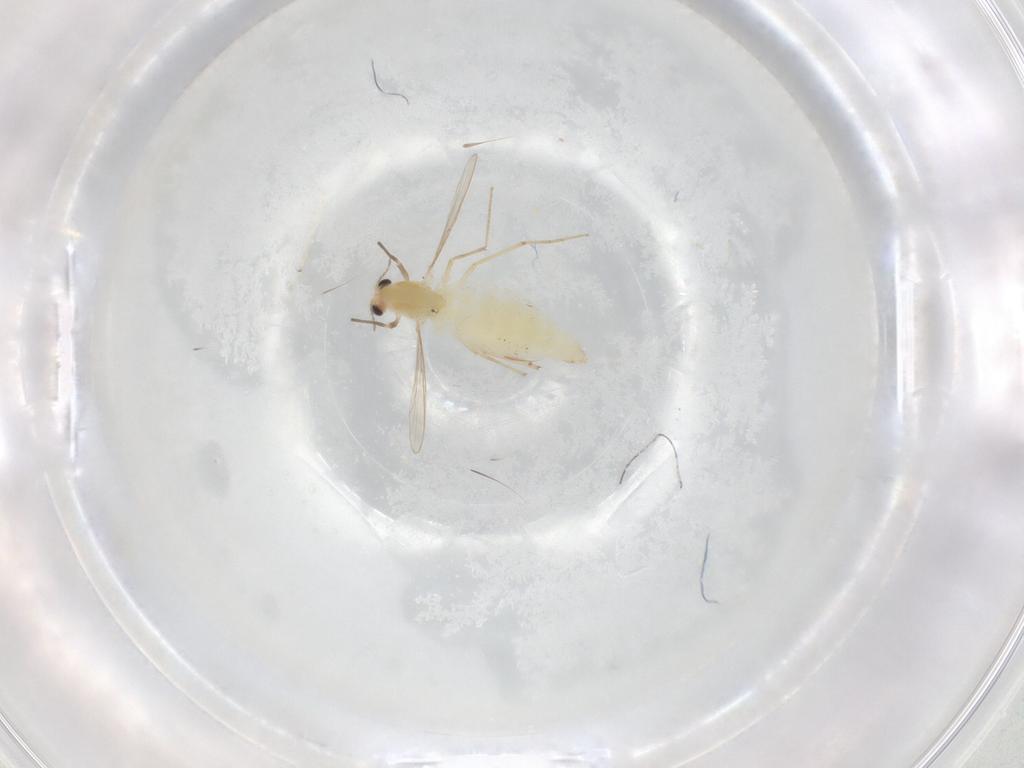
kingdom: Animalia
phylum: Arthropoda
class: Insecta
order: Diptera
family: Chironomidae
